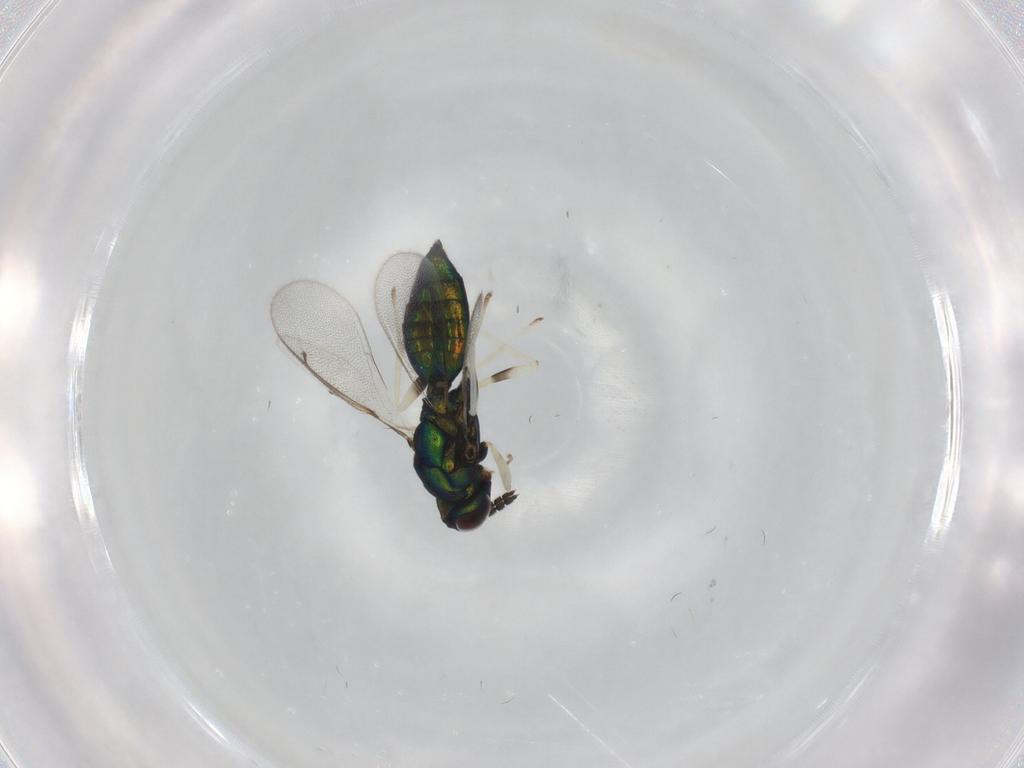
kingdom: Animalia
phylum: Arthropoda
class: Insecta
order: Hymenoptera
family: Eulophidae
